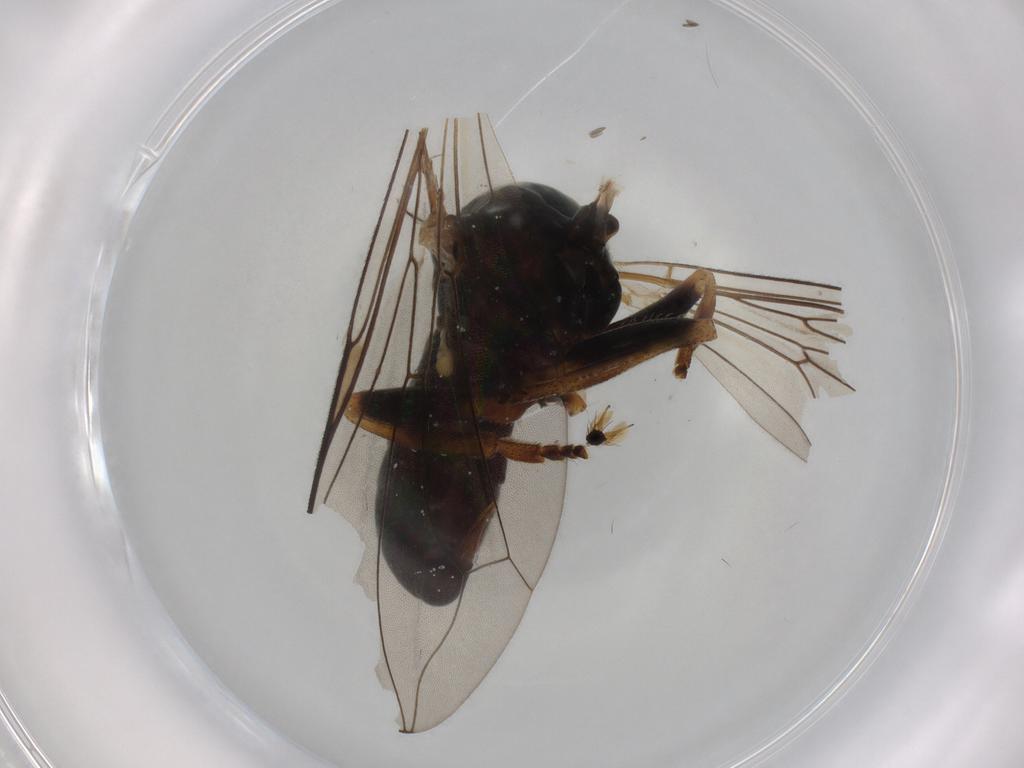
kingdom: Animalia
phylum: Arthropoda
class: Insecta
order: Diptera
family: Pipunculidae
